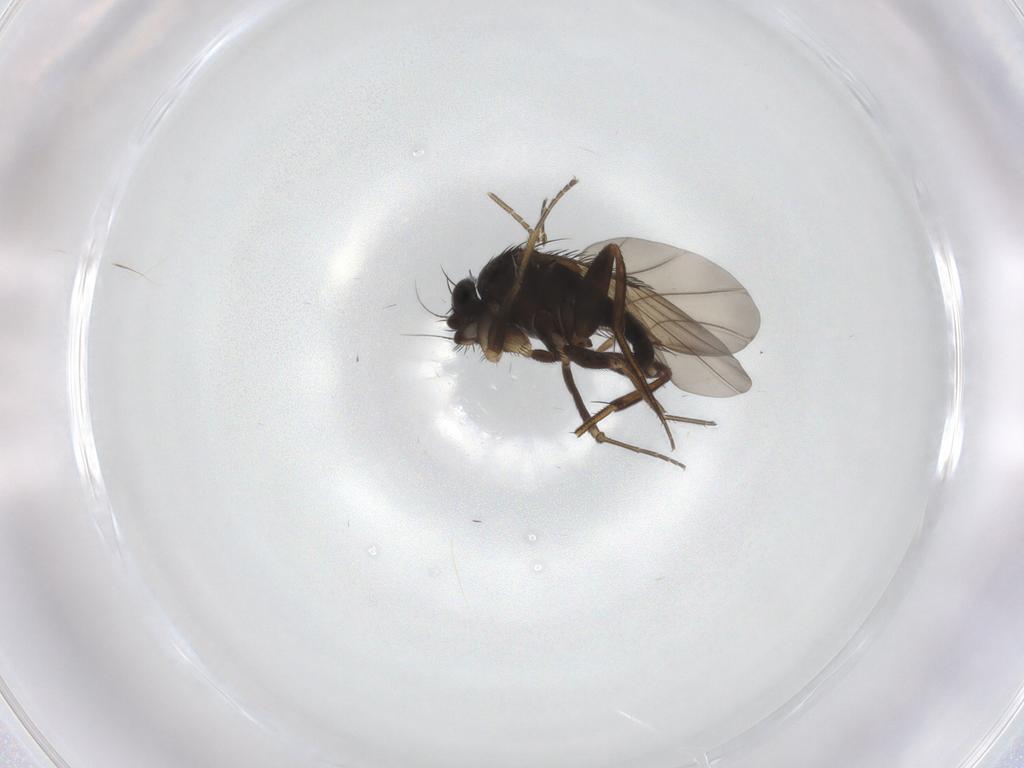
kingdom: Animalia
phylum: Arthropoda
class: Insecta
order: Diptera
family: Phoridae
